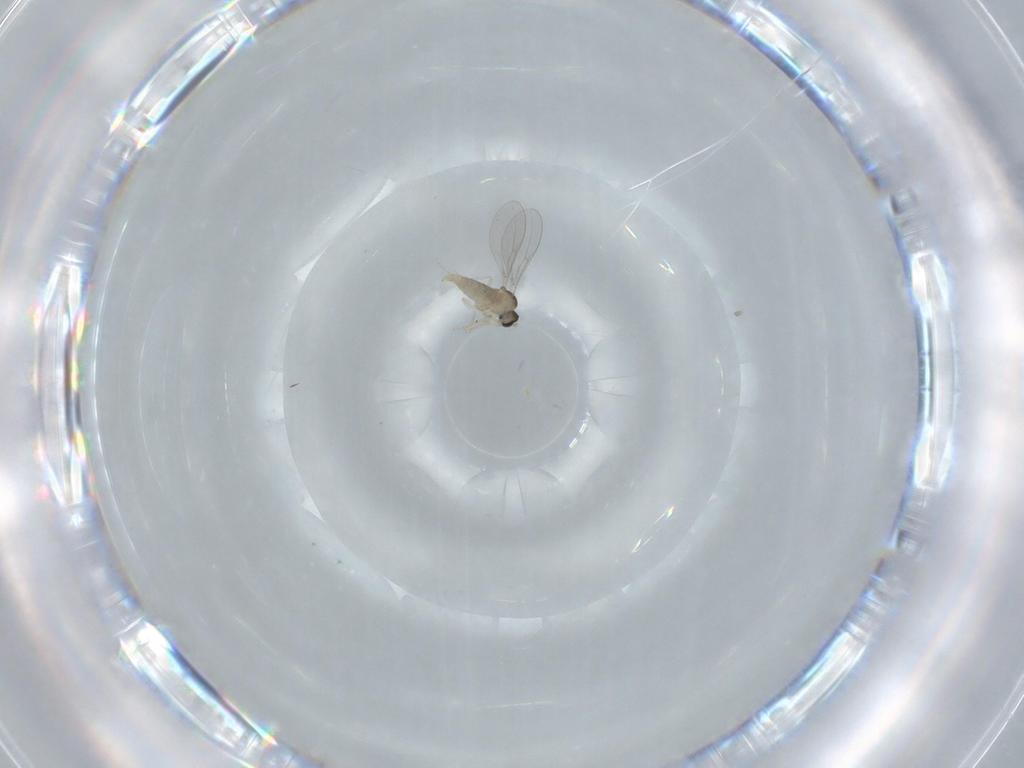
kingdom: Animalia
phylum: Arthropoda
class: Insecta
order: Diptera
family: Cecidomyiidae
